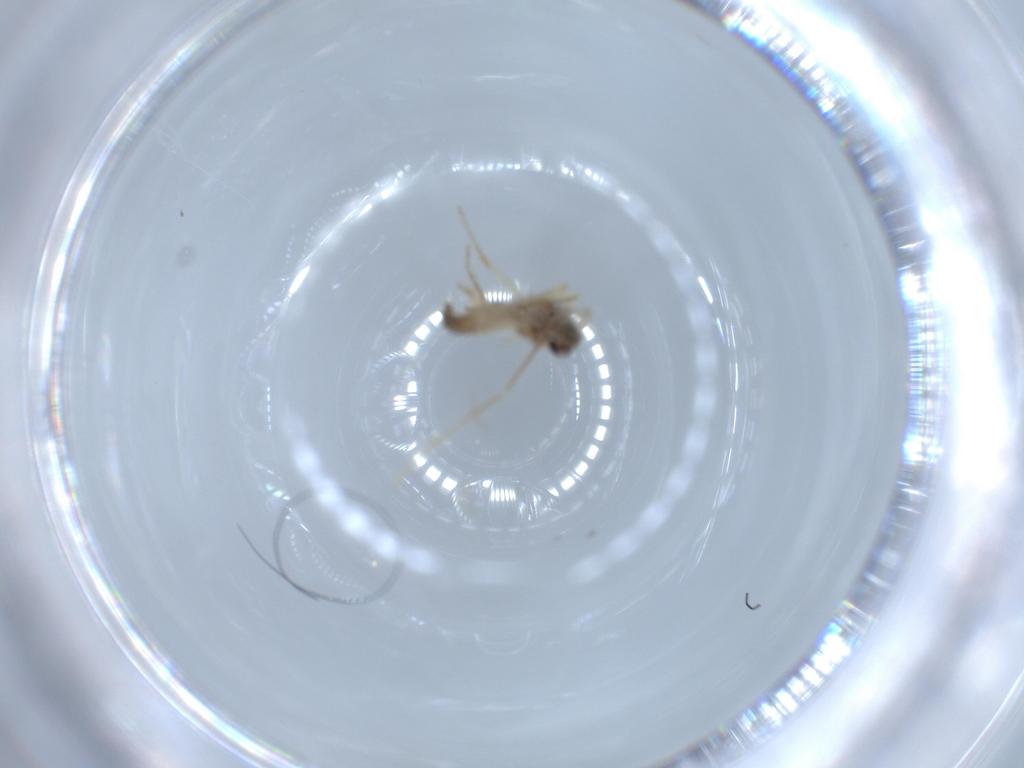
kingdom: Animalia
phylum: Arthropoda
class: Insecta
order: Diptera
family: Ceratopogonidae
